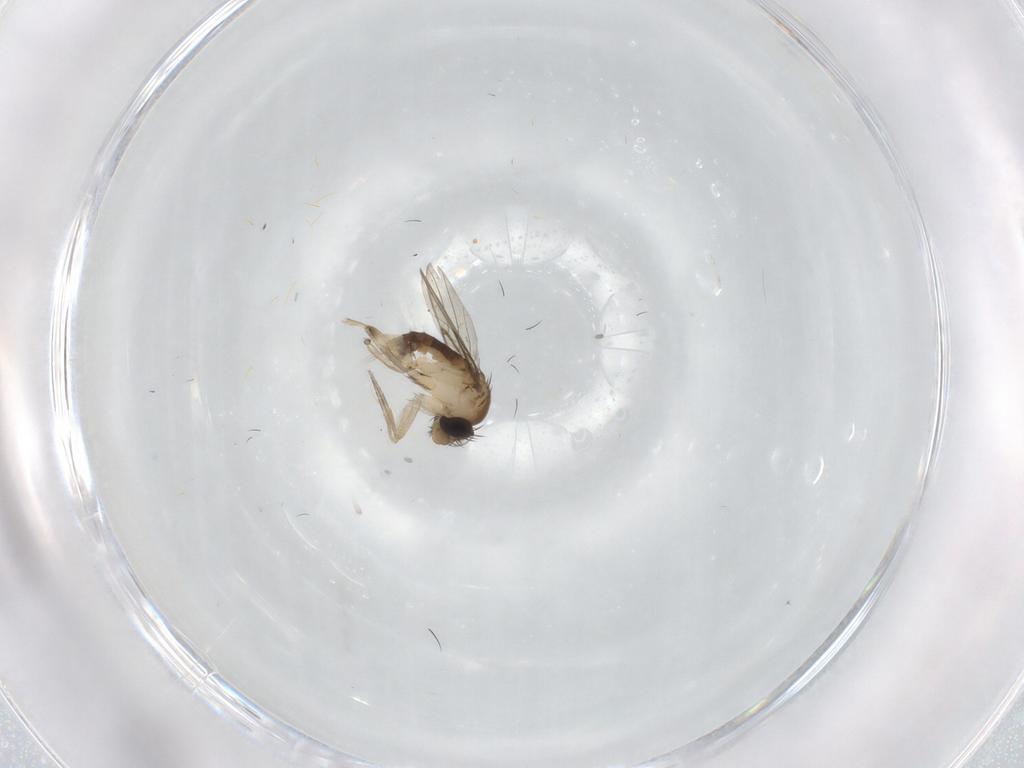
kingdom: Animalia
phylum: Arthropoda
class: Insecta
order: Diptera
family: Phoridae
